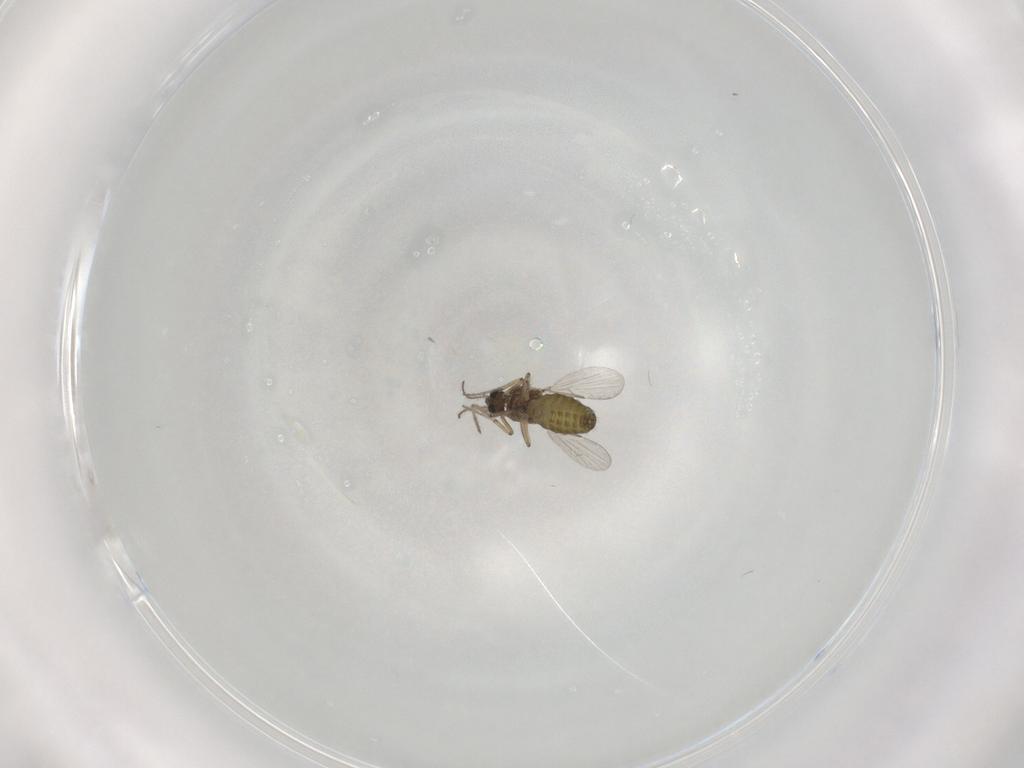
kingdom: Animalia
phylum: Arthropoda
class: Insecta
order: Diptera
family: Ceratopogonidae
